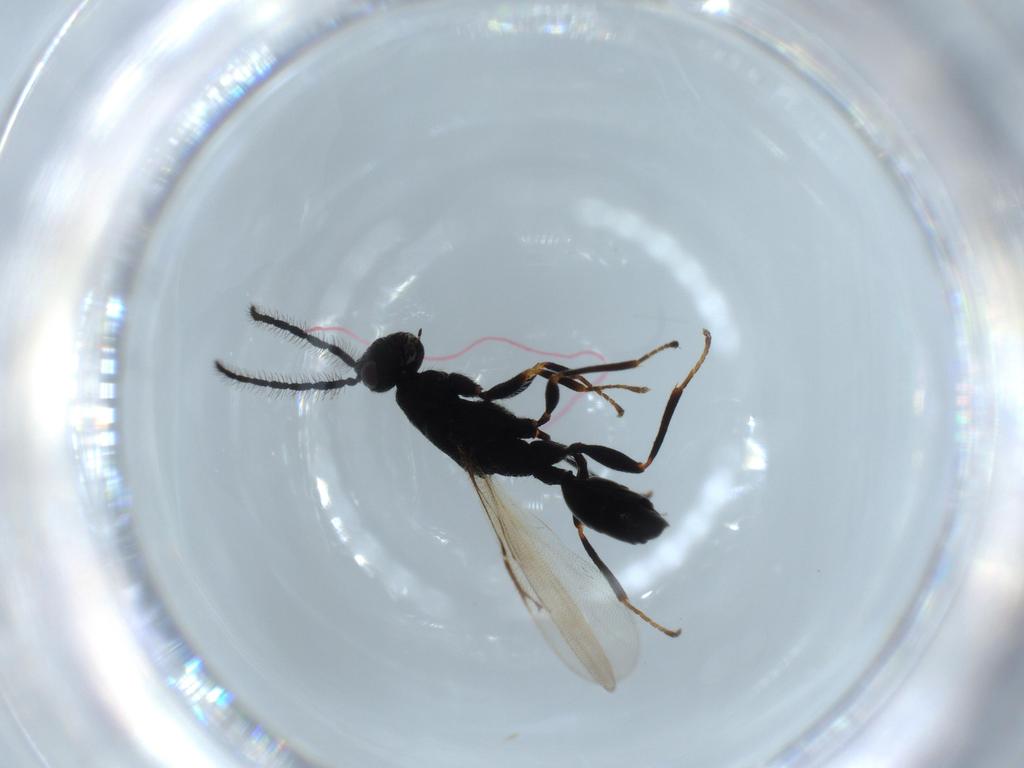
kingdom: Animalia
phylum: Arthropoda
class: Insecta
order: Hymenoptera
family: Eurytomidae
